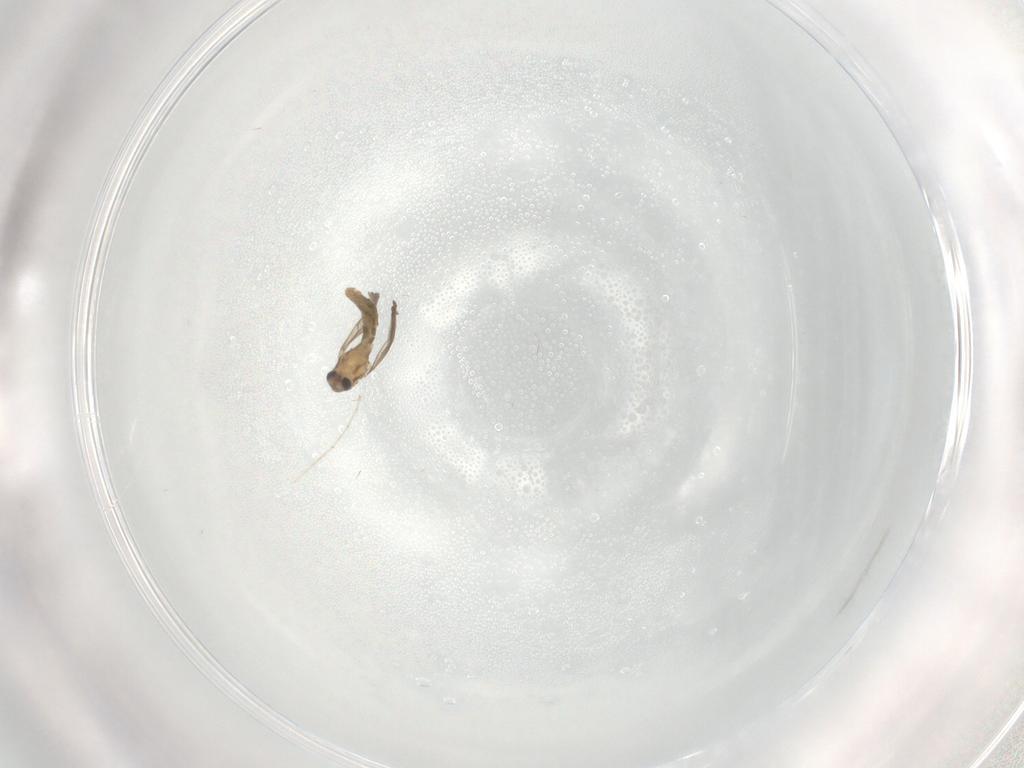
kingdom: Animalia
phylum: Arthropoda
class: Insecta
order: Diptera
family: Chironomidae
